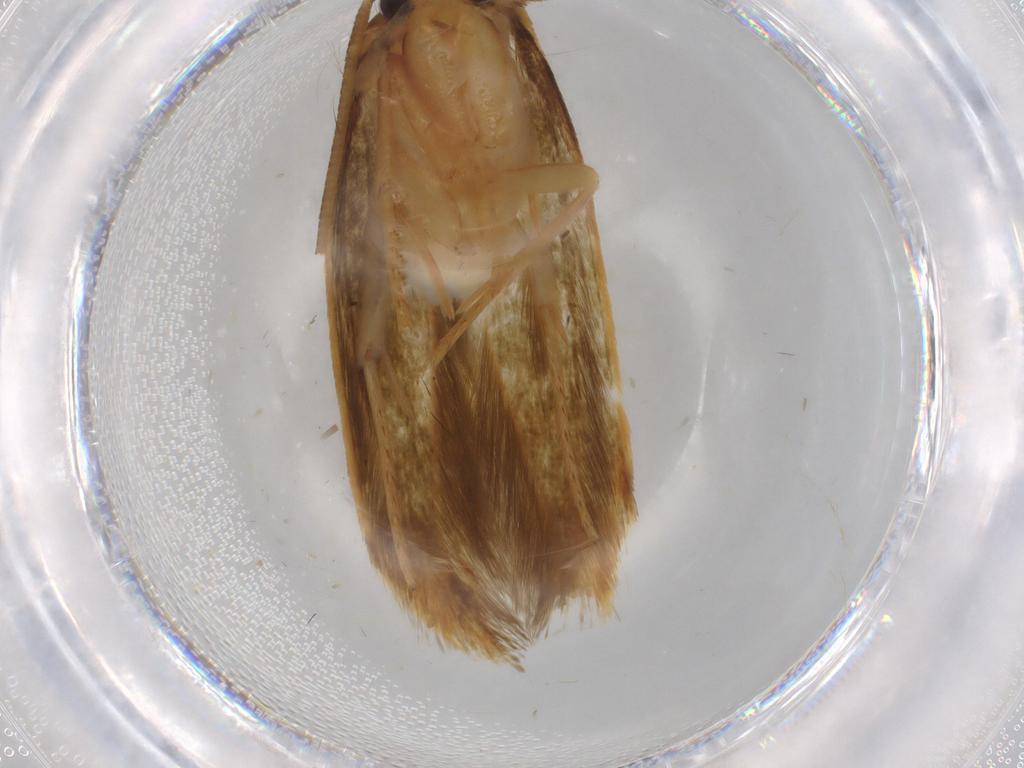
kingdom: Animalia
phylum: Arthropoda
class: Insecta
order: Lepidoptera
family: Tineidae
